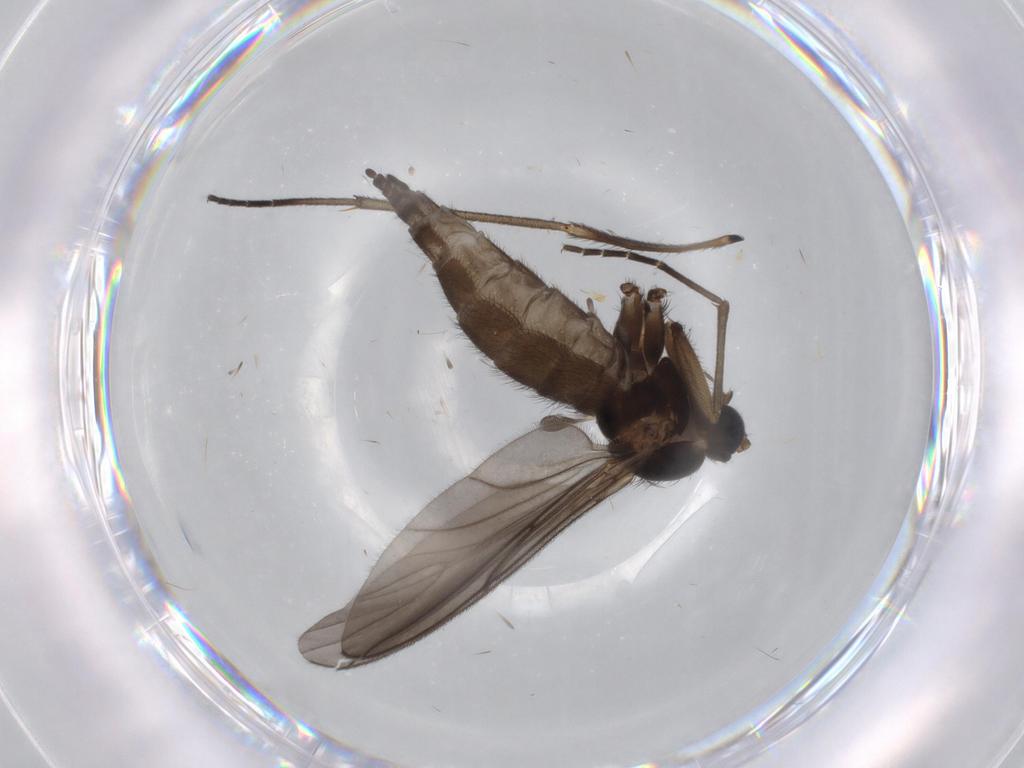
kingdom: Animalia
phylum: Arthropoda
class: Insecta
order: Diptera
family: Sciaridae
